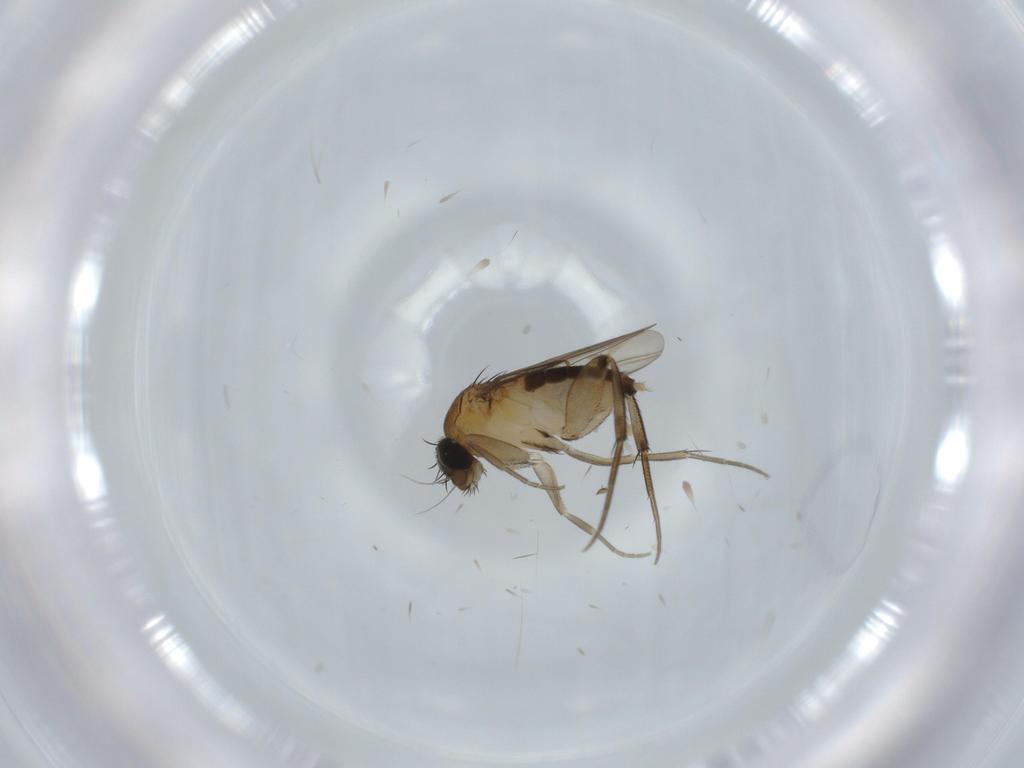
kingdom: Animalia
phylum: Arthropoda
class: Insecta
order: Diptera
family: Phoridae
